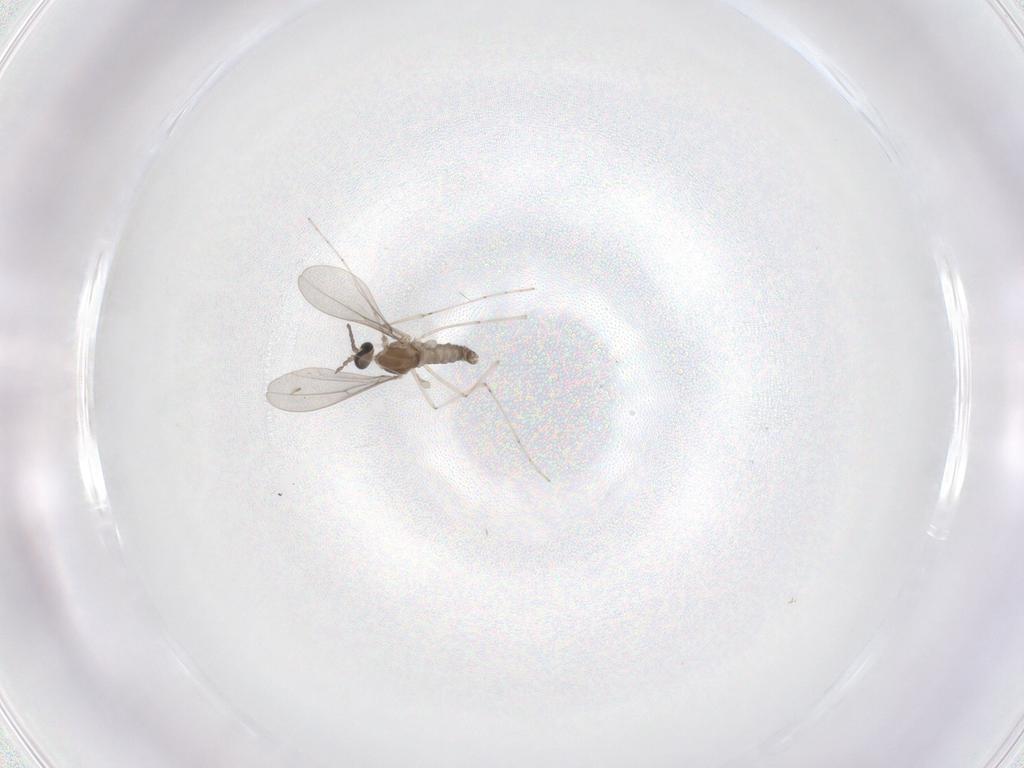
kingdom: Animalia
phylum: Arthropoda
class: Insecta
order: Diptera
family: Cecidomyiidae
